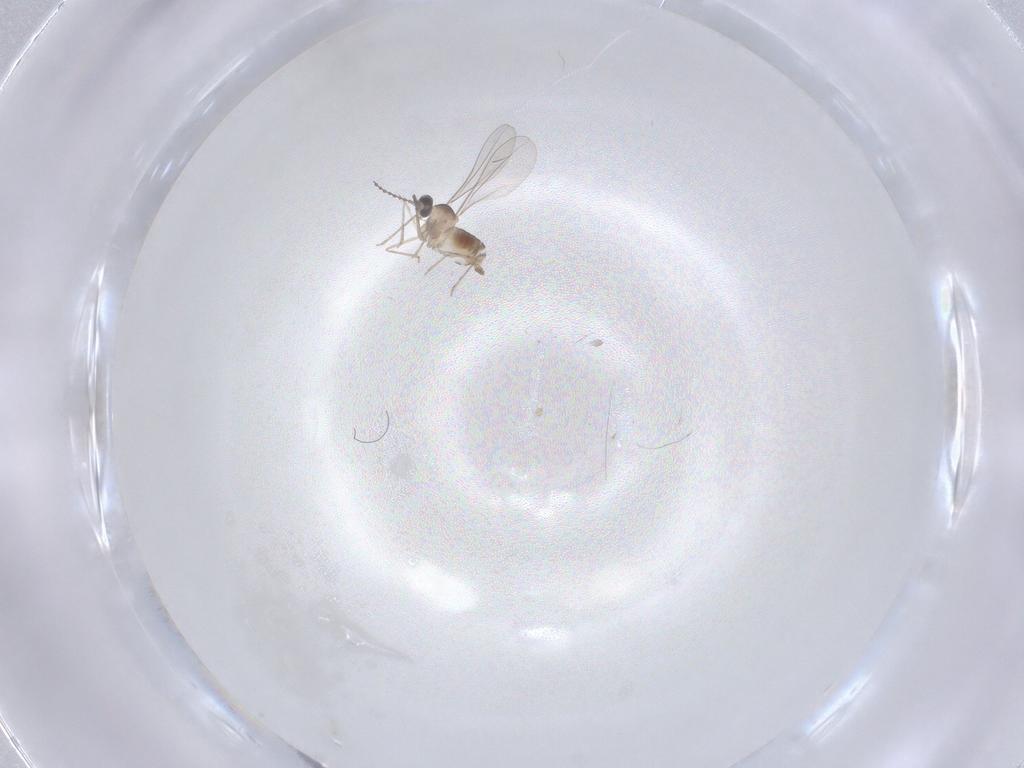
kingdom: Animalia
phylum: Arthropoda
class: Insecta
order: Diptera
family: Cecidomyiidae
